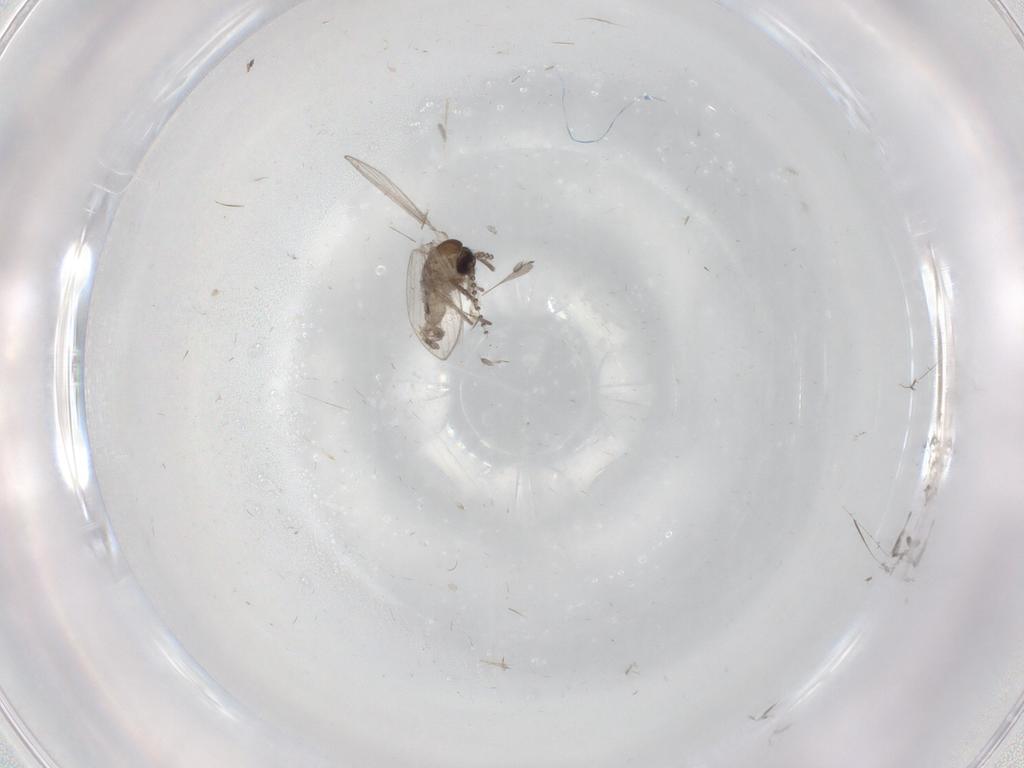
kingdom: Animalia
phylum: Arthropoda
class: Insecta
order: Diptera
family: Psychodidae
